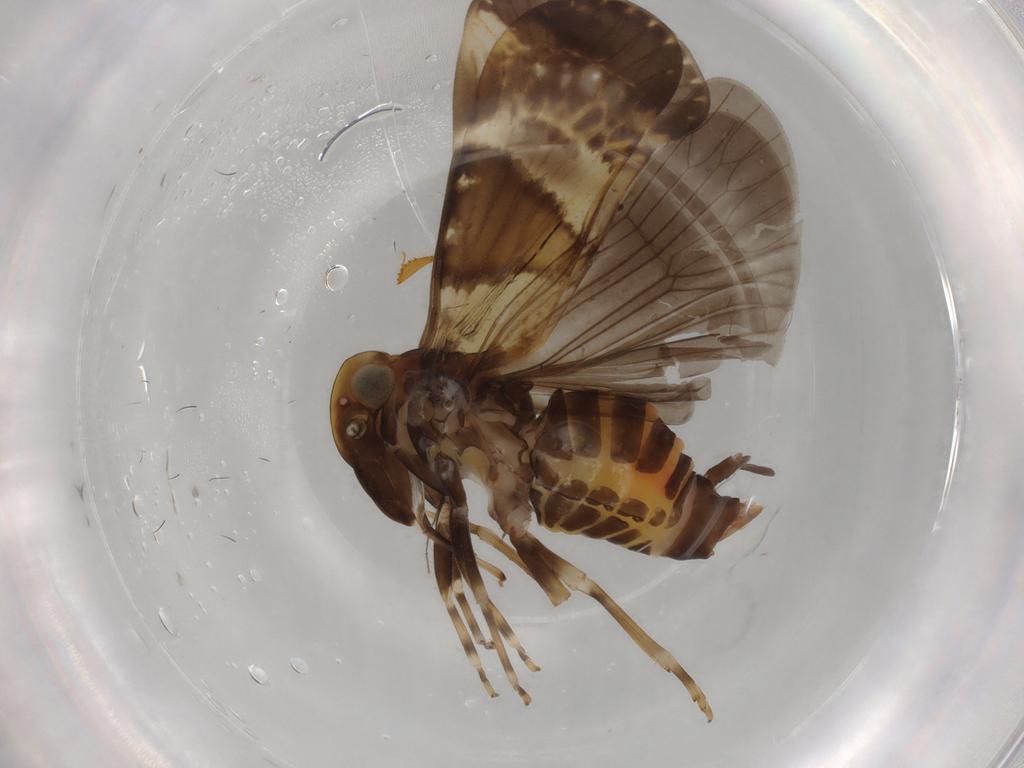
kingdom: Animalia
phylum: Arthropoda
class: Insecta
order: Hemiptera
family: Cixiidae
